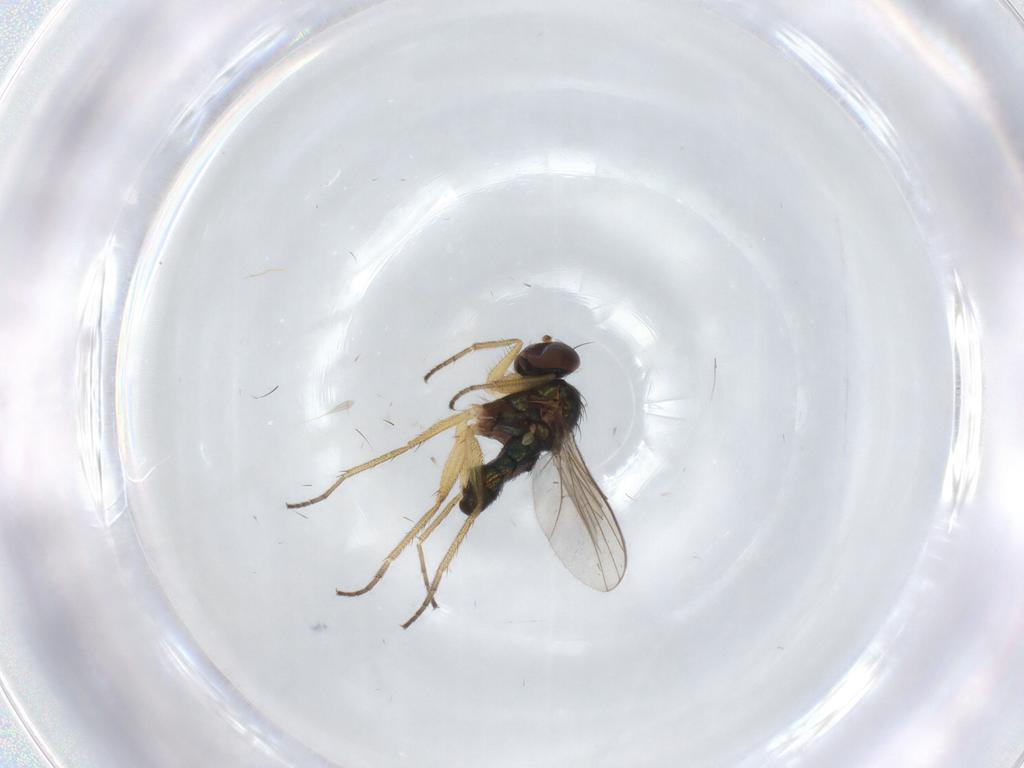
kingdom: Animalia
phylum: Arthropoda
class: Insecta
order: Diptera
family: Dolichopodidae
